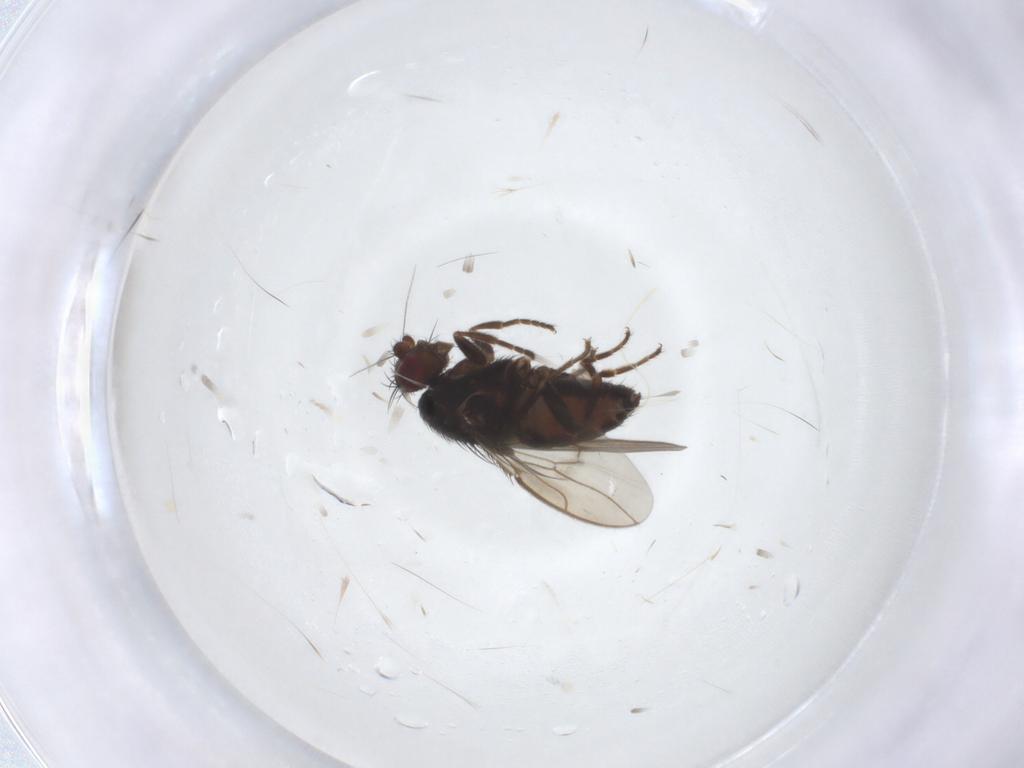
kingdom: Animalia
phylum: Arthropoda
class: Insecta
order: Diptera
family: Sphaeroceridae
